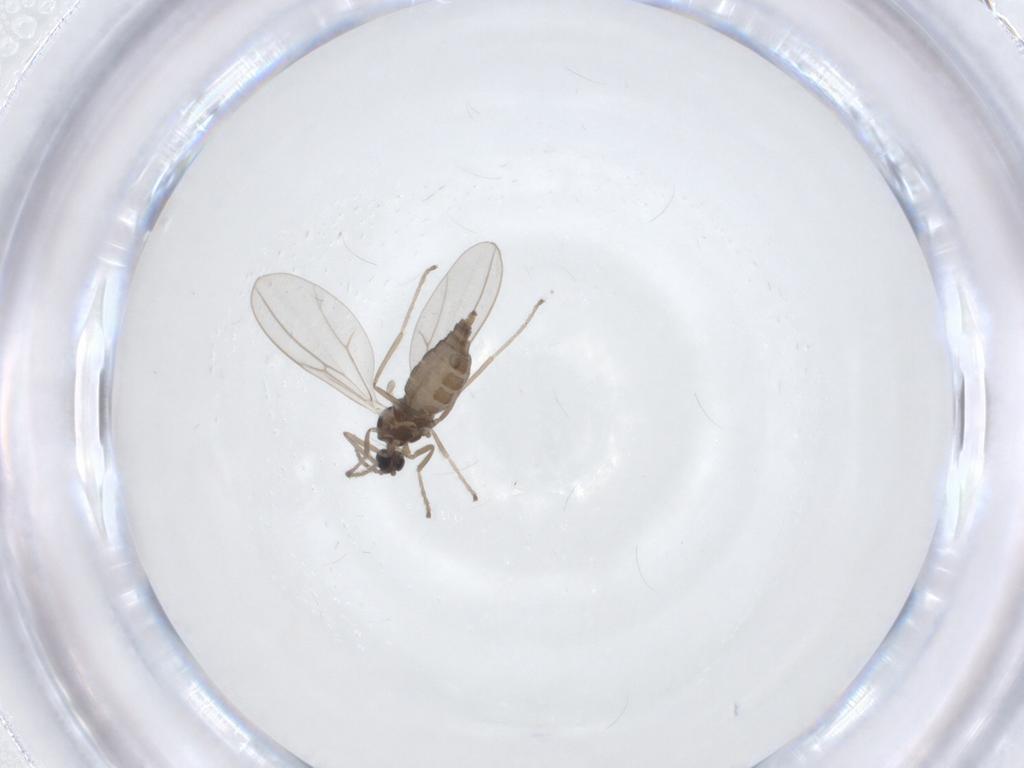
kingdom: Animalia
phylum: Arthropoda
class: Insecta
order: Diptera
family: Cecidomyiidae
